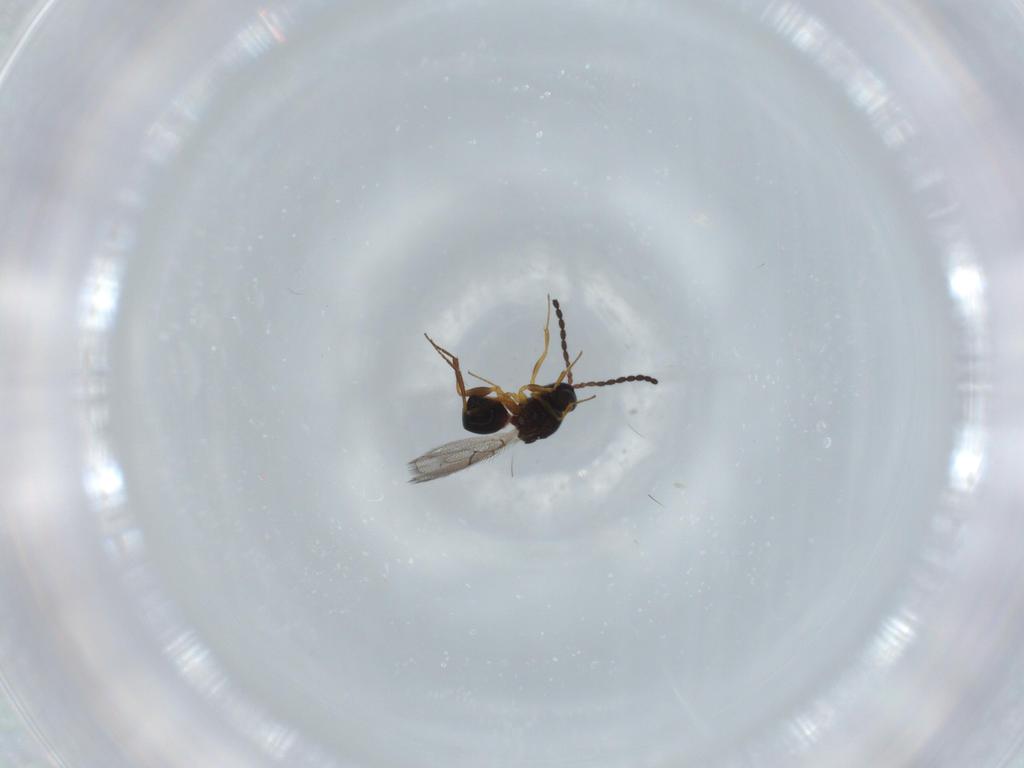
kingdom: Animalia
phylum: Arthropoda
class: Insecta
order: Hymenoptera
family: Figitidae
